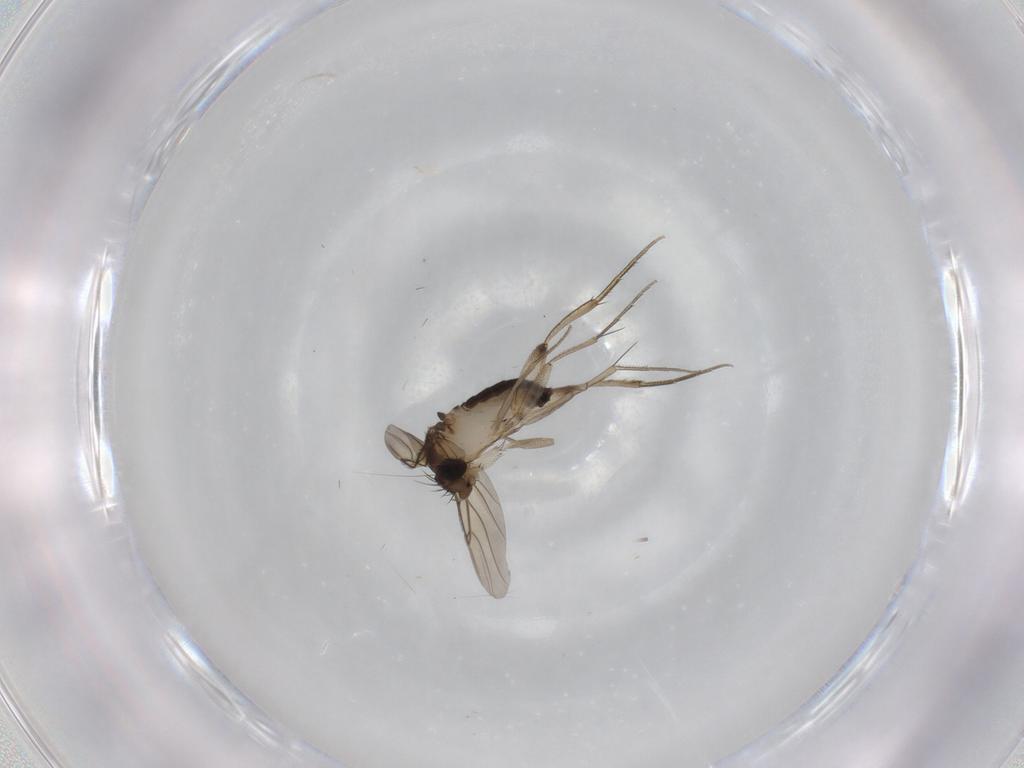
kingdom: Animalia
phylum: Arthropoda
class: Insecta
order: Diptera
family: Phoridae
